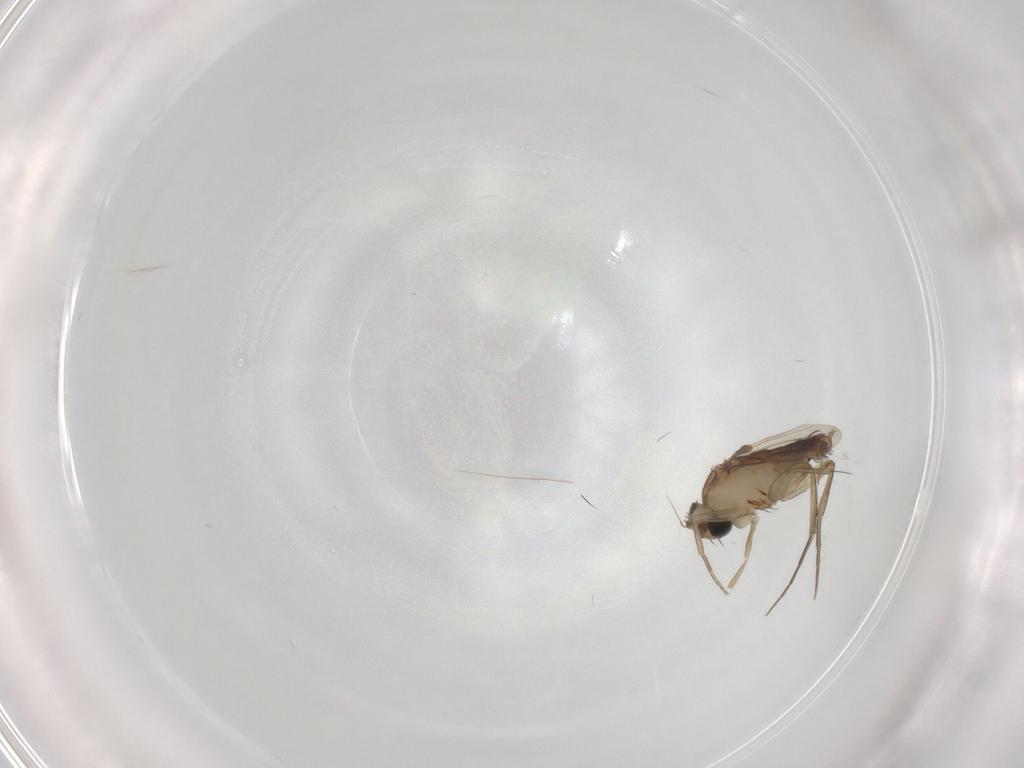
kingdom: Animalia
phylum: Arthropoda
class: Insecta
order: Diptera
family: Phoridae
